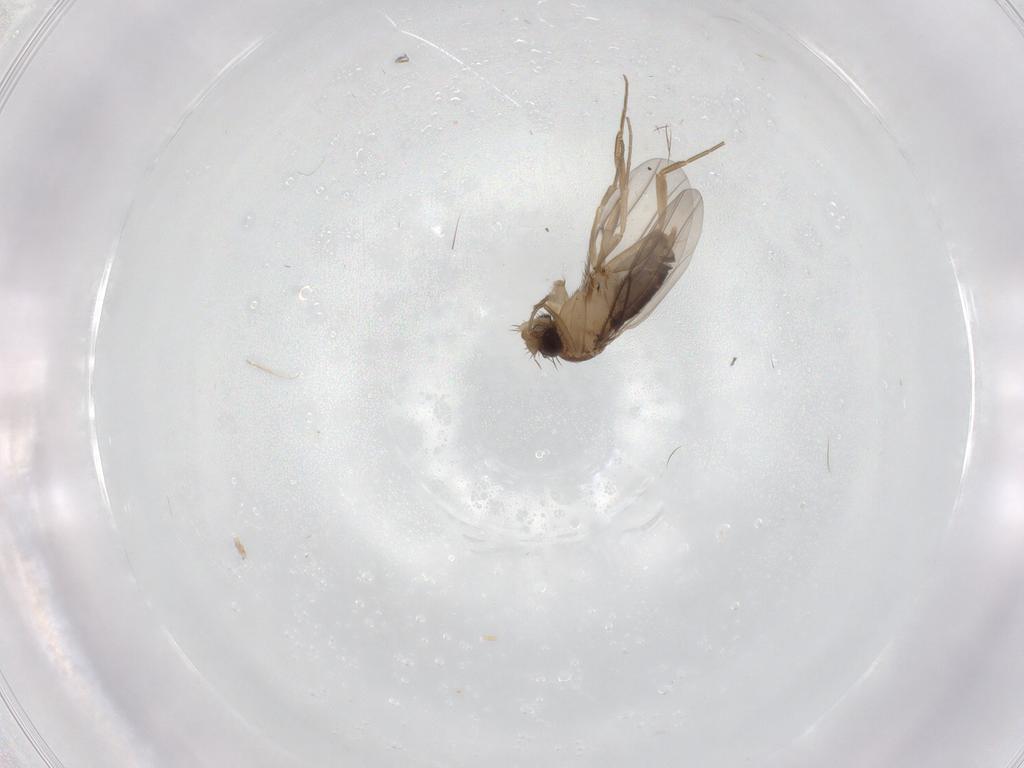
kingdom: Animalia
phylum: Arthropoda
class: Insecta
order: Diptera
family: Phoridae
